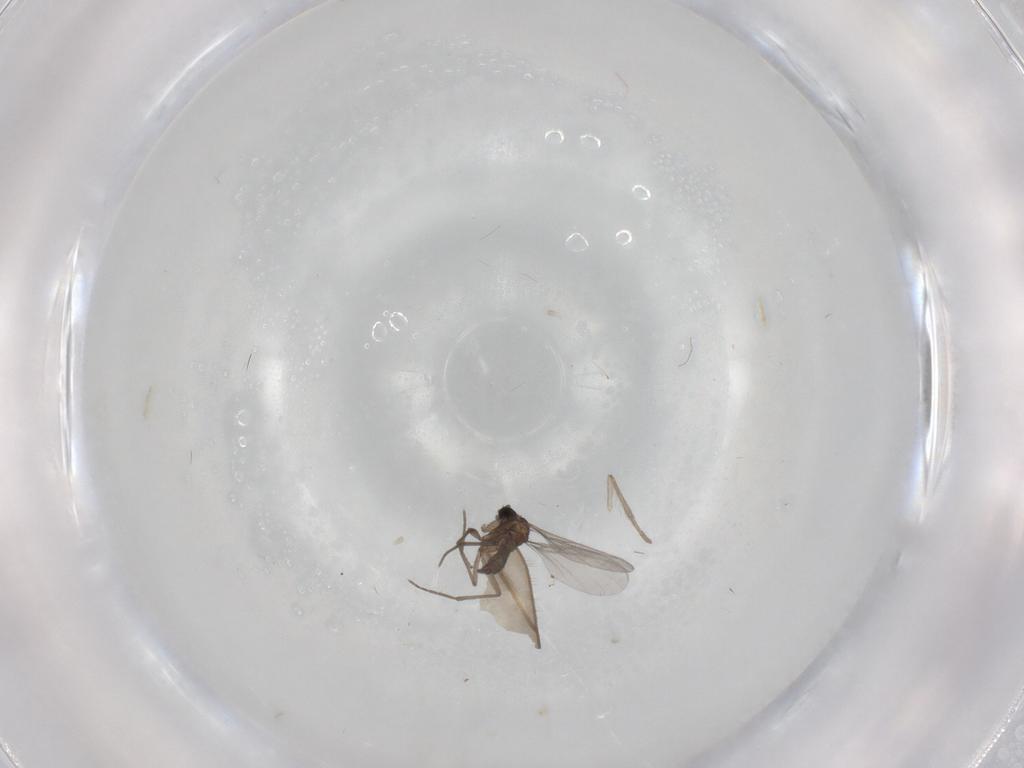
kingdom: Animalia
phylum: Arthropoda
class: Insecta
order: Diptera
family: Sciaridae
